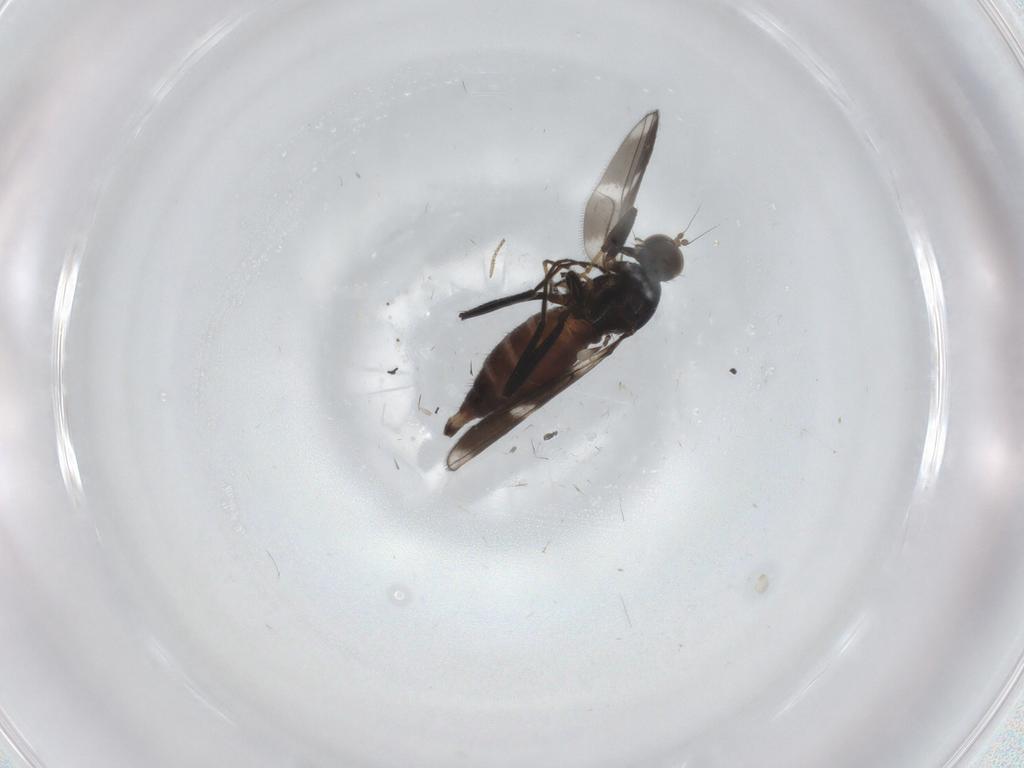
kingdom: Animalia
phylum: Arthropoda
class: Insecta
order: Diptera
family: Hybotidae
